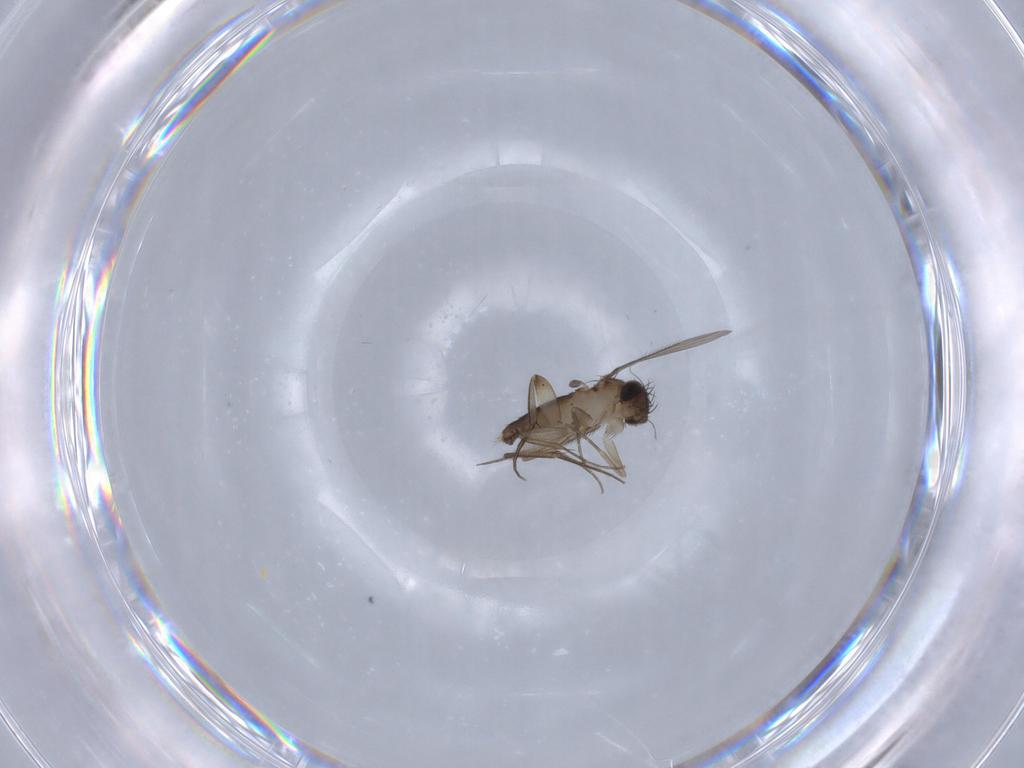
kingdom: Animalia
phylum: Arthropoda
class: Insecta
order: Diptera
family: Phoridae
